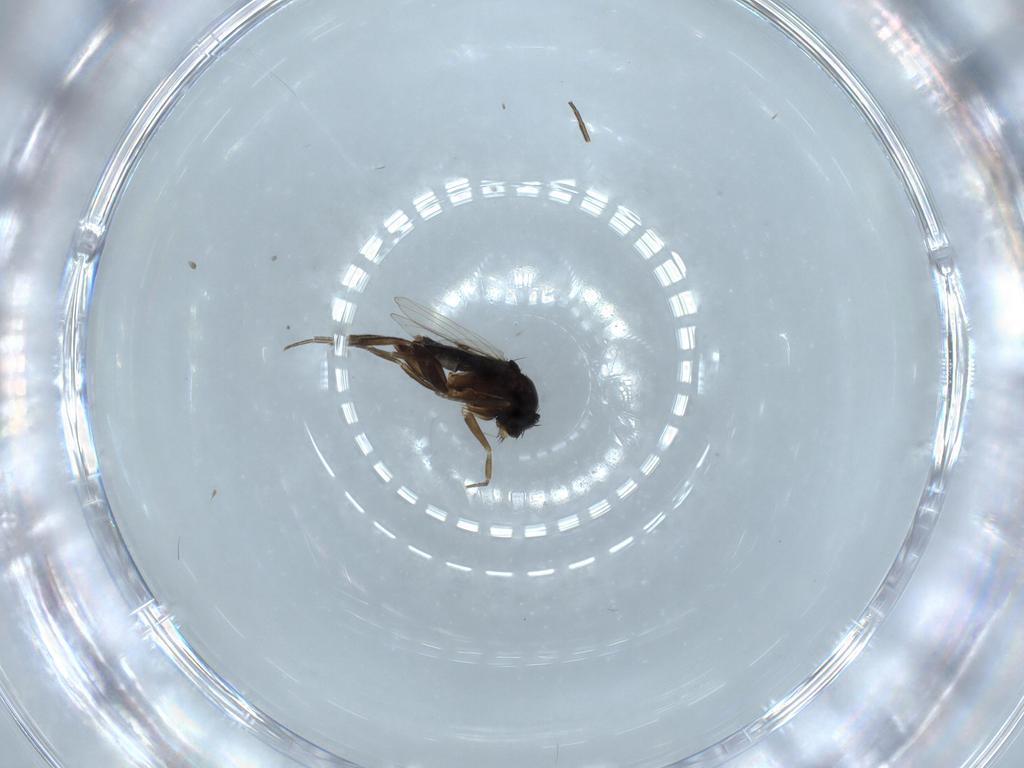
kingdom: Animalia
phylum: Arthropoda
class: Insecta
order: Diptera
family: Phoridae
